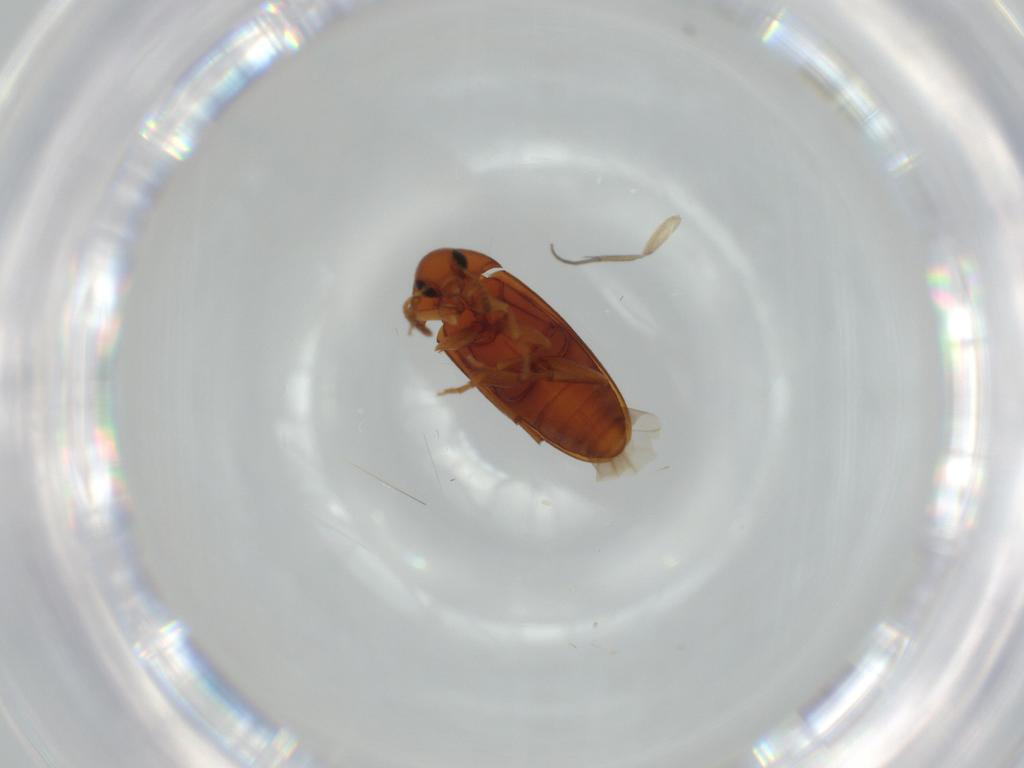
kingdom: Animalia
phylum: Arthropoda
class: Insecta
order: Coleoptera
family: Scraptiidae
